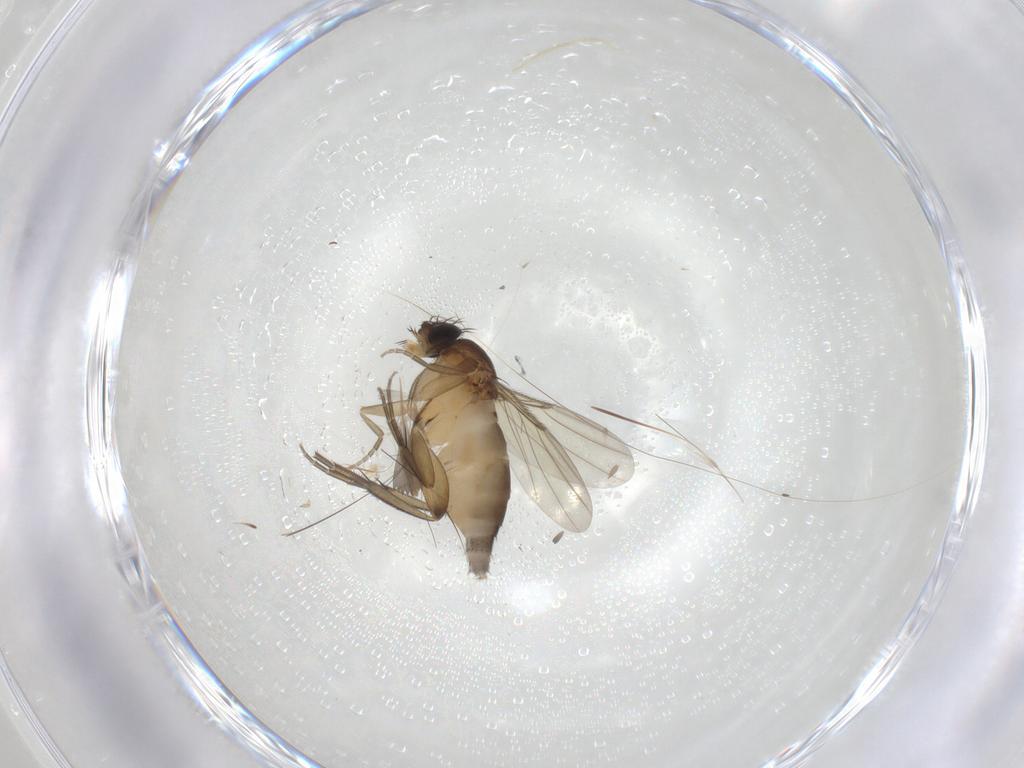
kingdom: Animalia
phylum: Arthropoda
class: Insecta
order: Diptera
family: Phoridae
